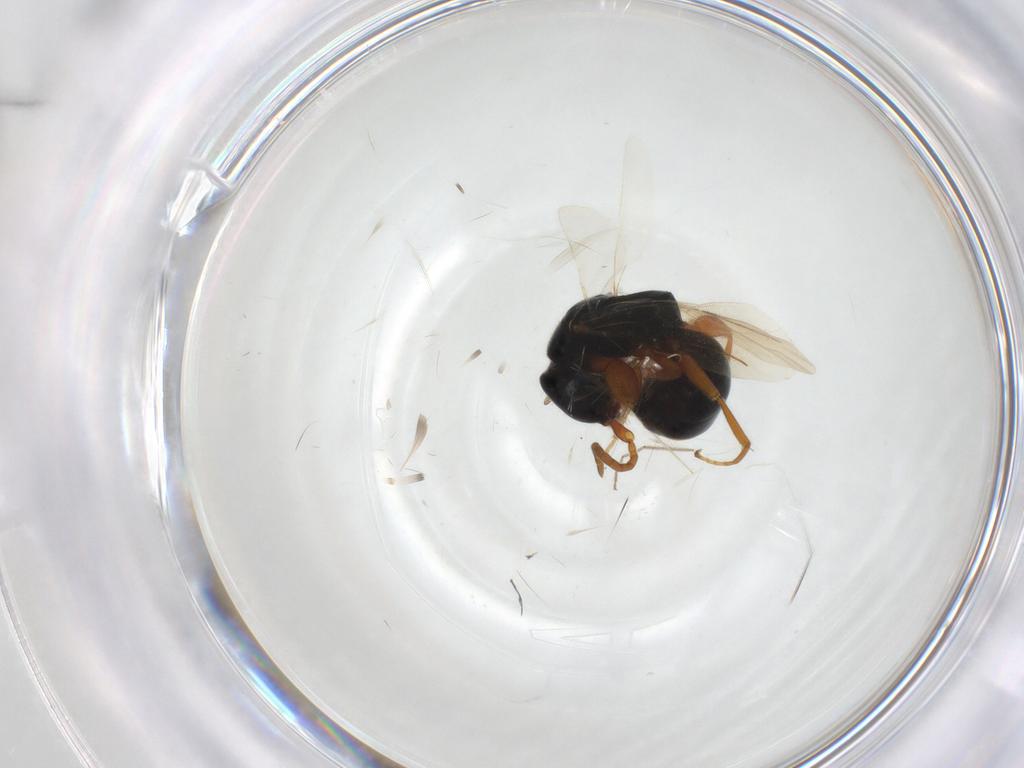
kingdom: Animalia
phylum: Arthropoda
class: Insecta
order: Hymenoptera
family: Bethylidae
